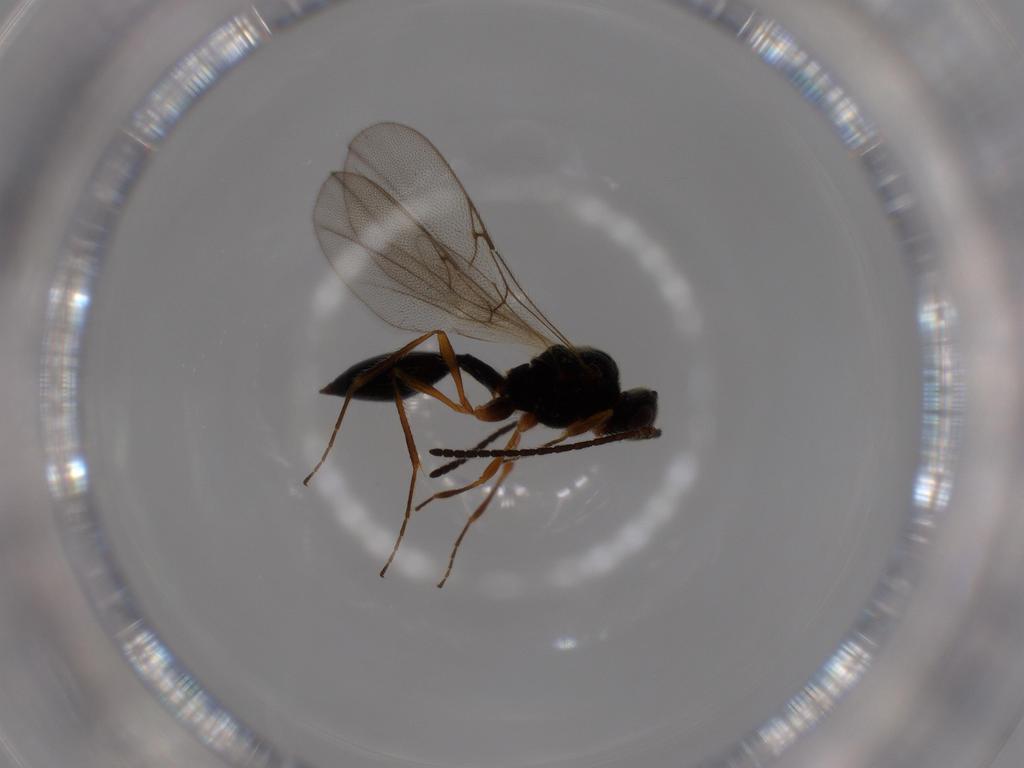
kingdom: Animalia
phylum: Arthropoda
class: Insecta
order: Hymenoptera
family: Diapriidae
